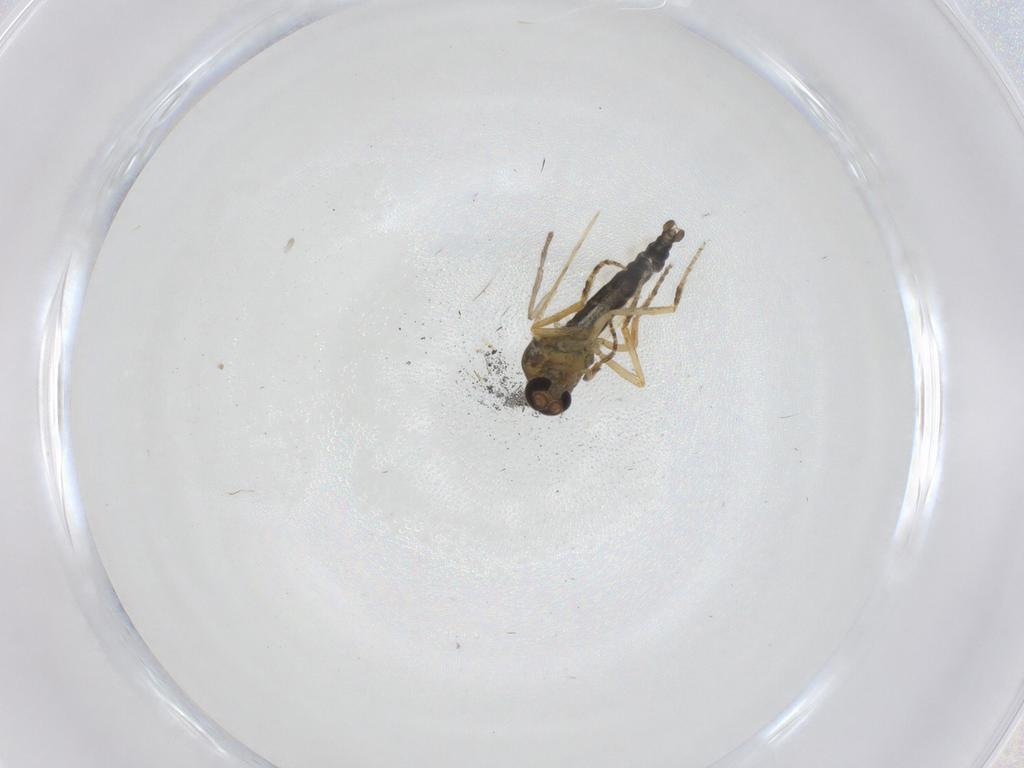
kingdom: Animalia
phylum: Arthropoda
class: Insecta
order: Diptera
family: Ceratopogonidae
